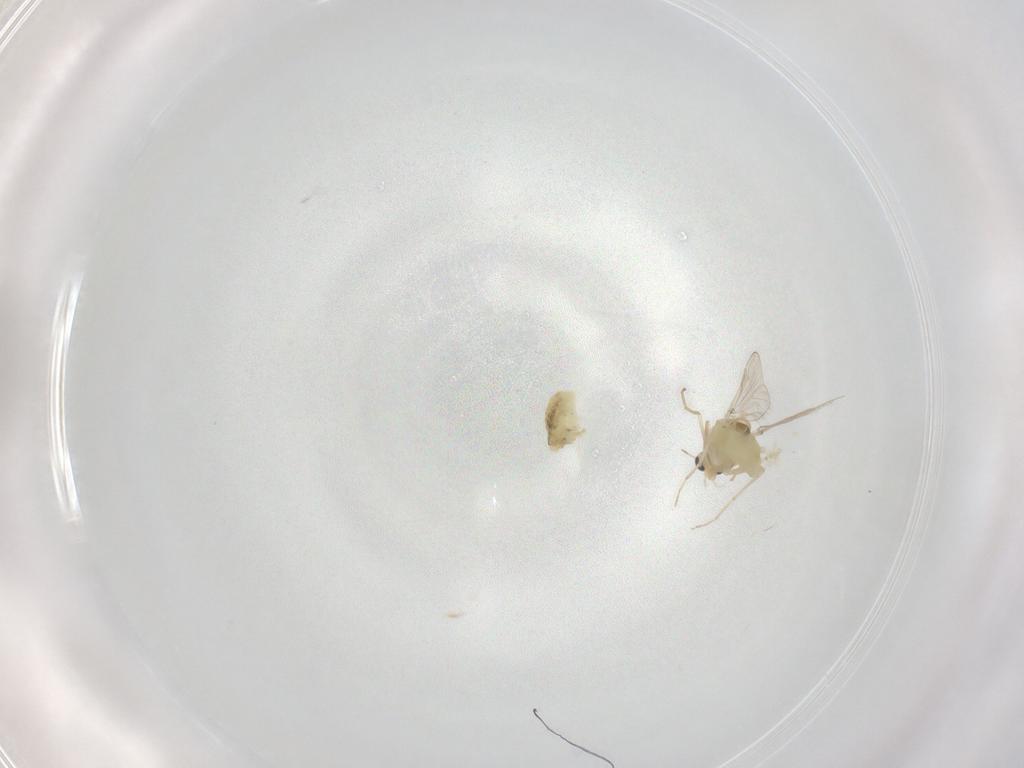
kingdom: Animalia
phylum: Arthropoda
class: Insecta
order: Diptera
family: Chironomidae
